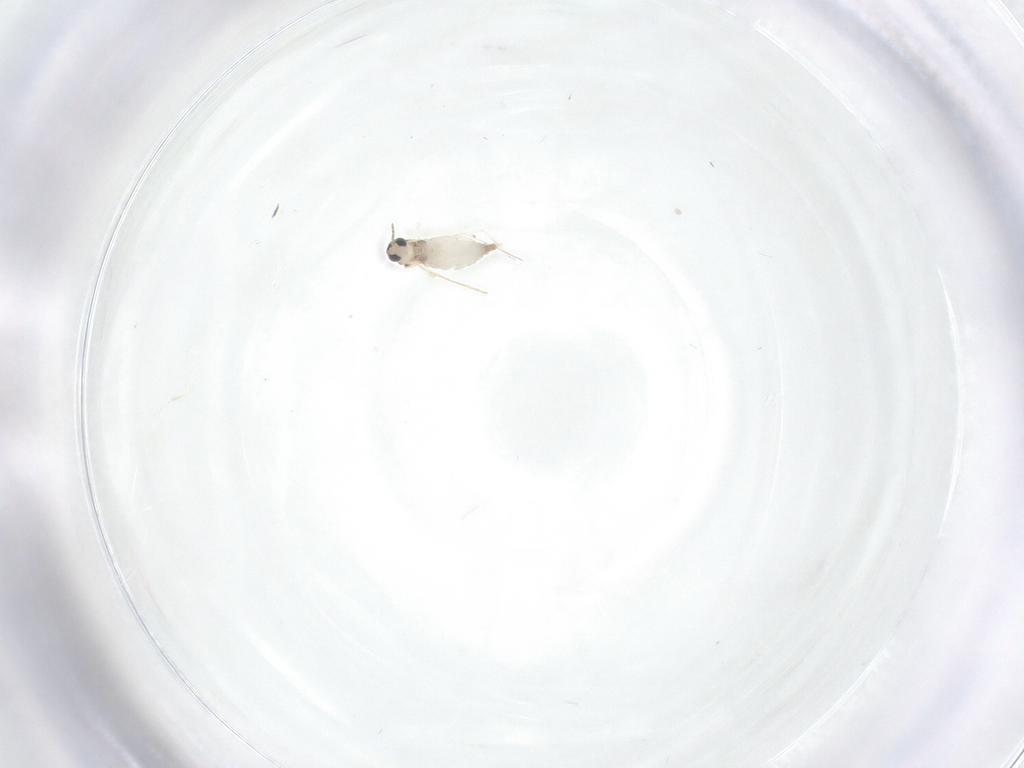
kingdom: Animalia
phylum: Arthropoda
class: Insecta
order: Diptera
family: Chironomidae
